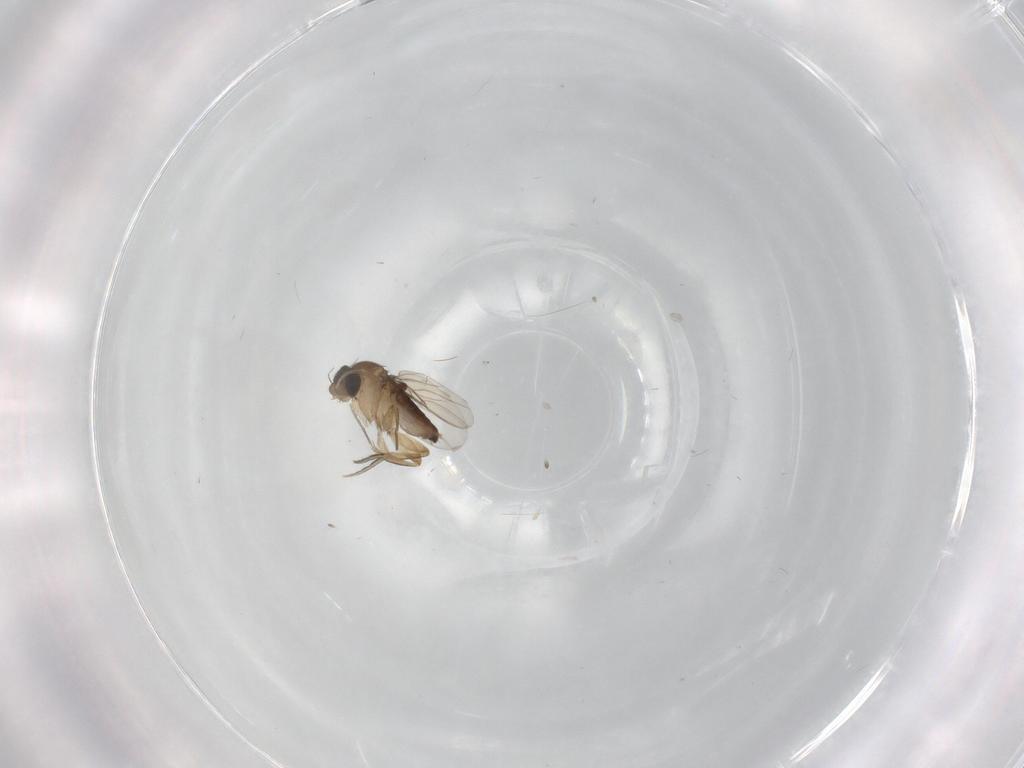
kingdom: Animalia
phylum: Arthropoda
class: Insecta
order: Diptera
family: Phoridae
